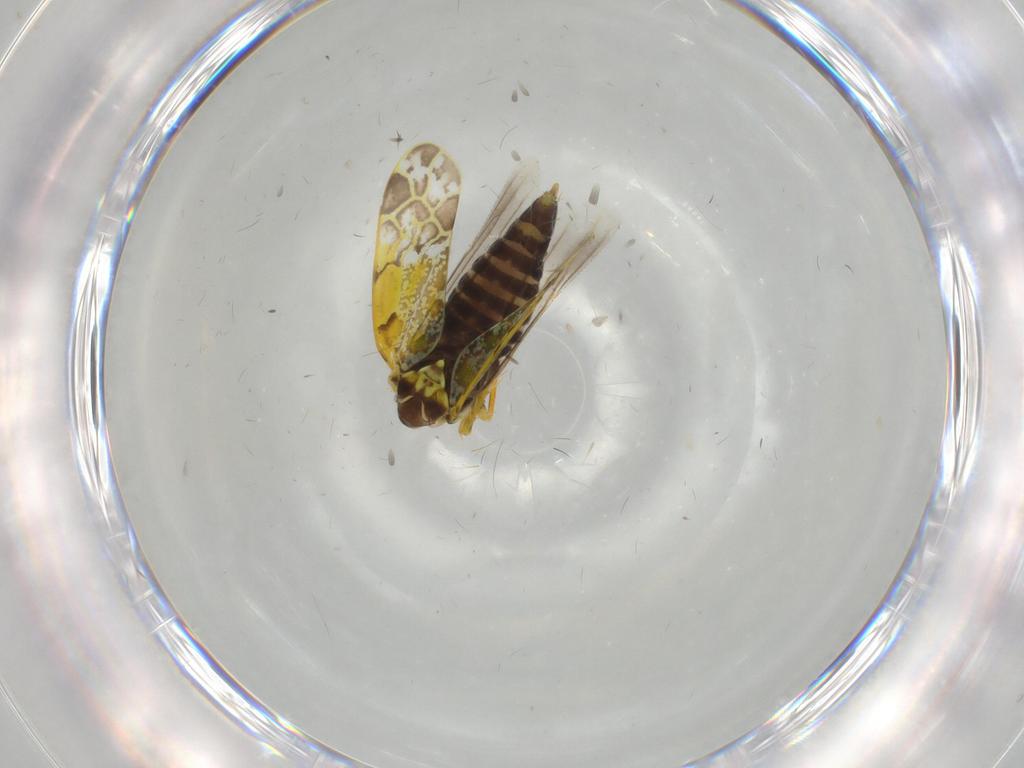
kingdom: Animalia
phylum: Arthropoda
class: Insecta
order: Hemiptera
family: Cicadellidae
